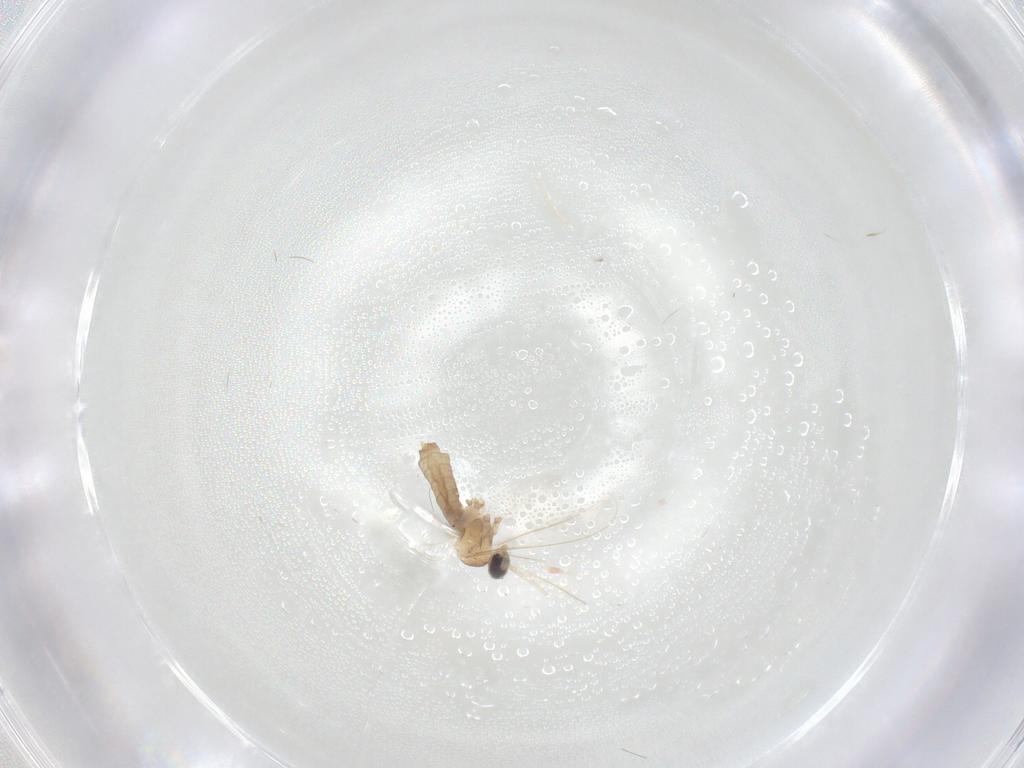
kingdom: Animalia
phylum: Arthropoda
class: Insecta
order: Diptera
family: Cecidomyiidae
